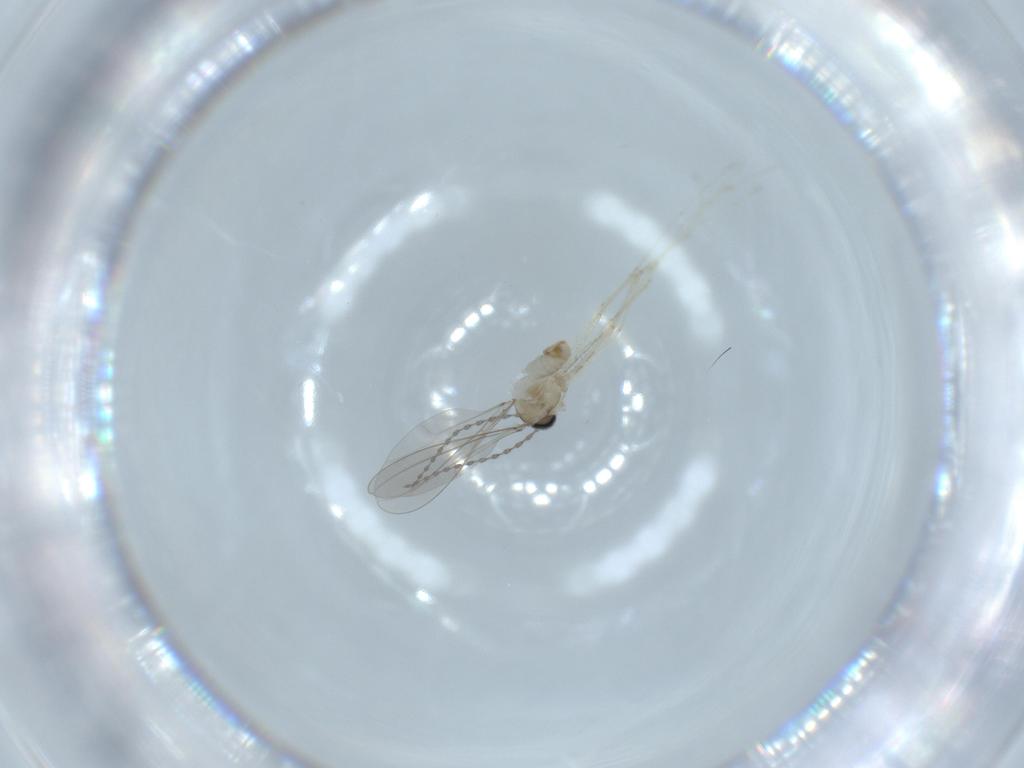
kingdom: Animalia
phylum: Arthropoda
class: Insecta
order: Diptera
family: Cecidomyiidae
